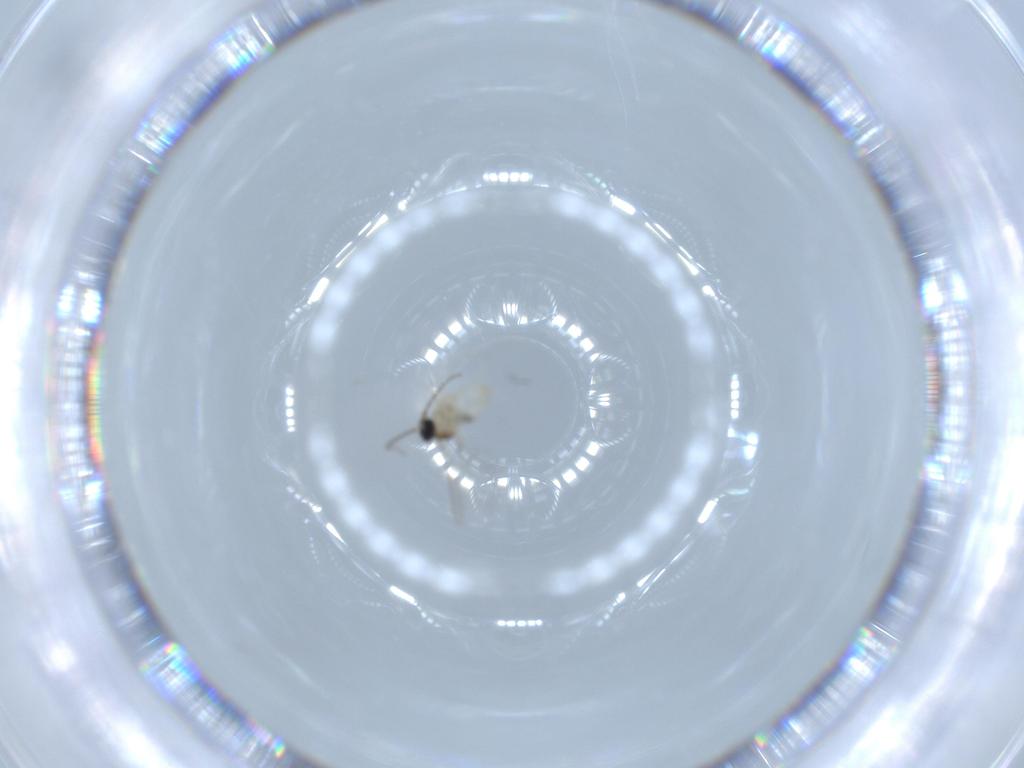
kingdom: Animalia
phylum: Arthropoda
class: Insecta
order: Diptera
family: Cecidomyiidae
